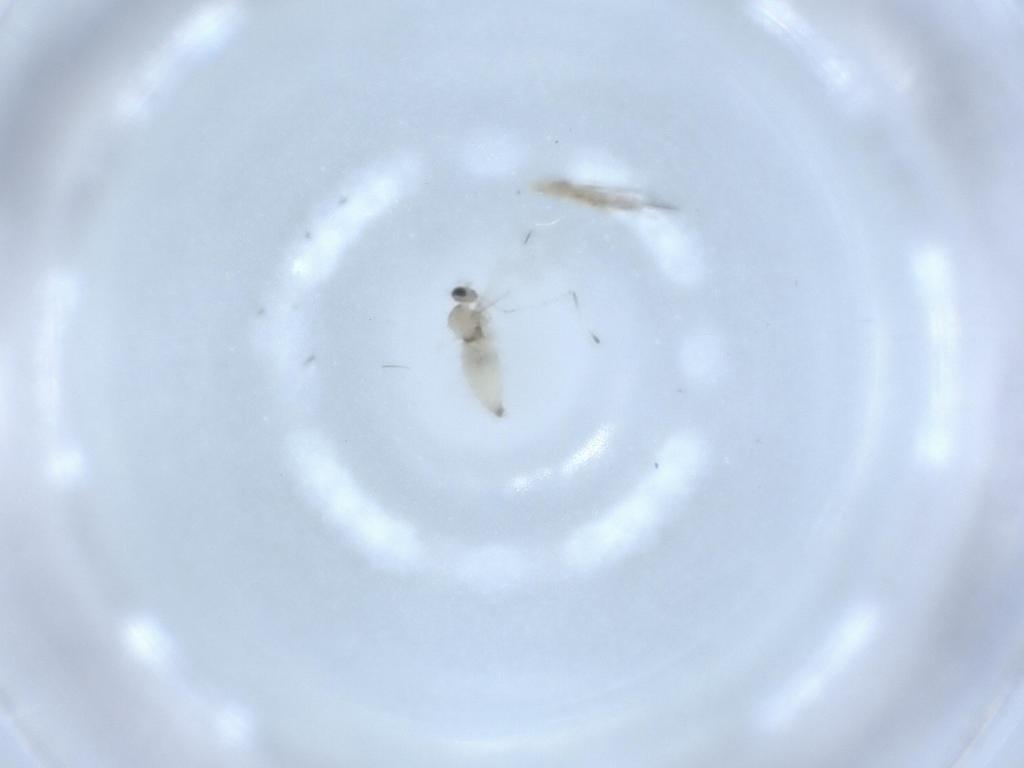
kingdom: Animalia
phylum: Arthropoda
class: Insecta
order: Diptera
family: Cecidomyiidae
